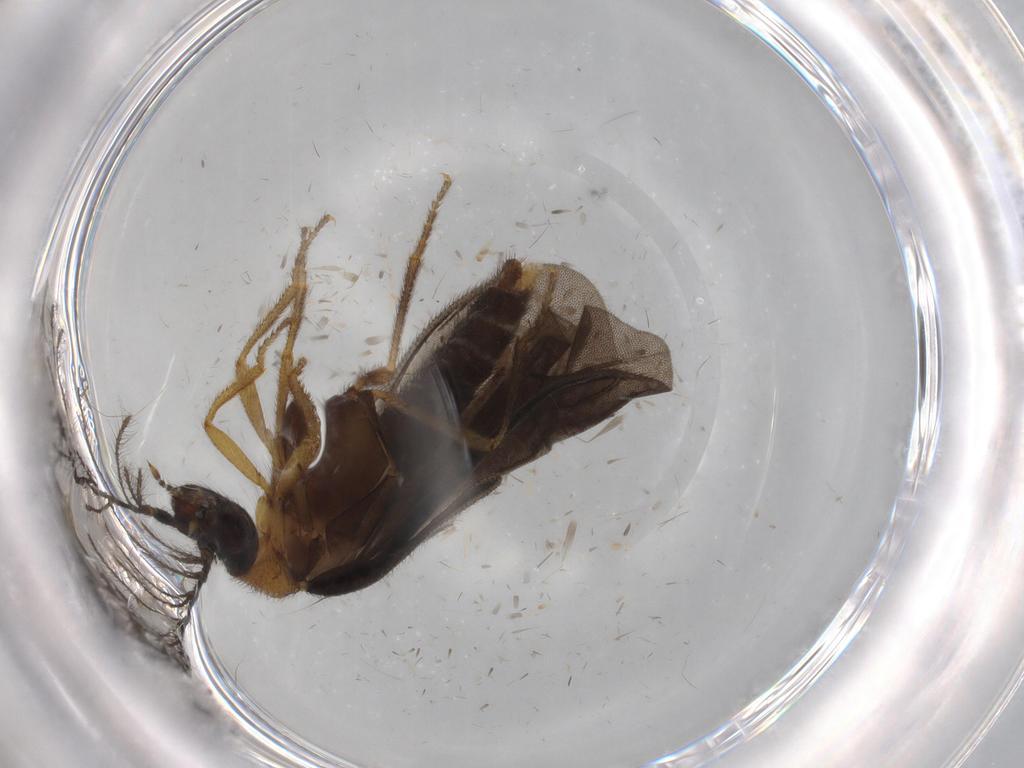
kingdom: Animalia
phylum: Arthropoda
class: Insecta
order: Coleoptera
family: Phengodidae
